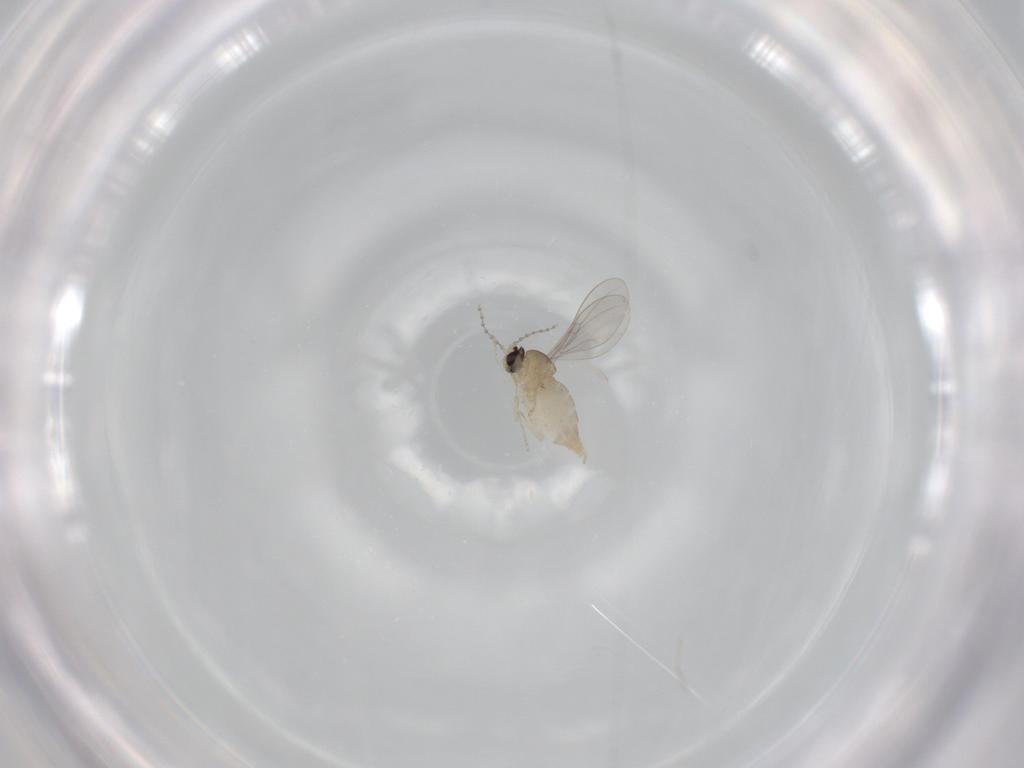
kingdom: Animalia
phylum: Arthropoda
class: Insecta
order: Diptera
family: Cecidomyiidae
